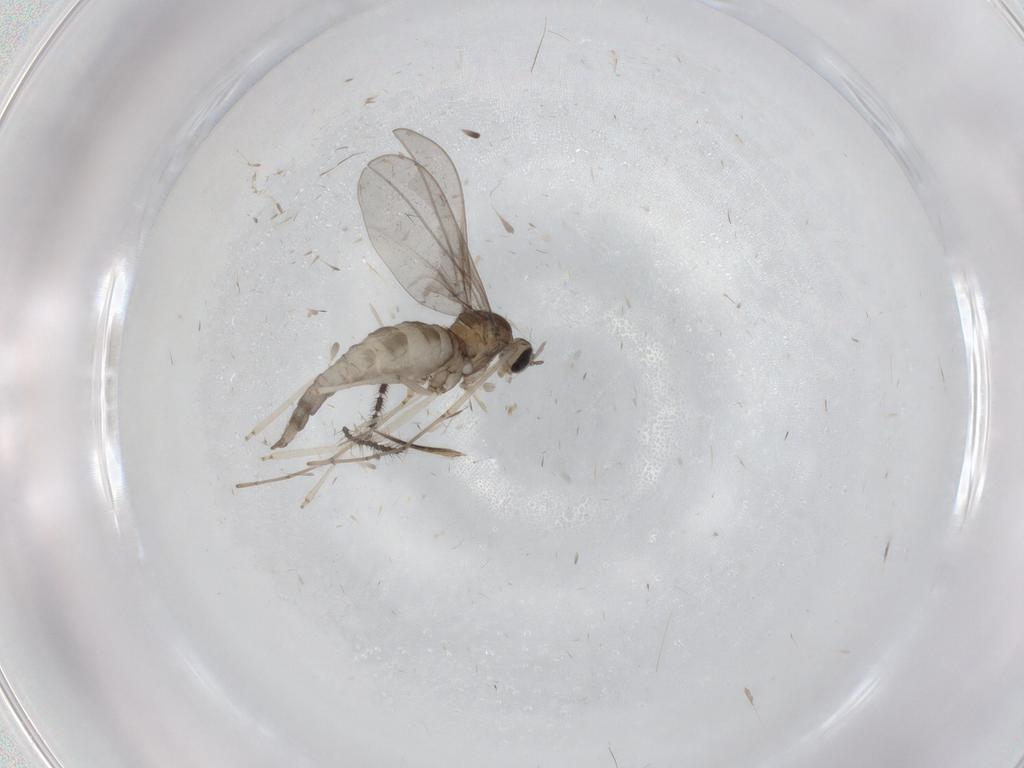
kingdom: Animalia
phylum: Arthropoda
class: Insecta
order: Diptera
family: Cecidomyiidae
